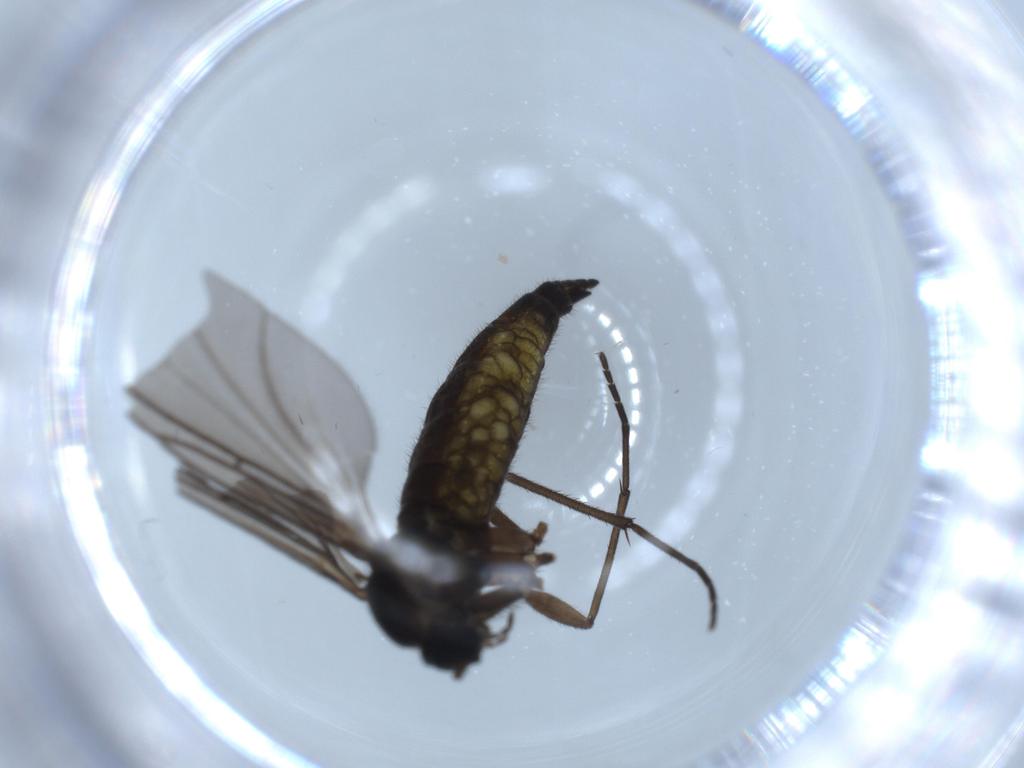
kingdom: Animalia
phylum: Arthropoda
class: Insecta
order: Diptera
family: Sciaridae
